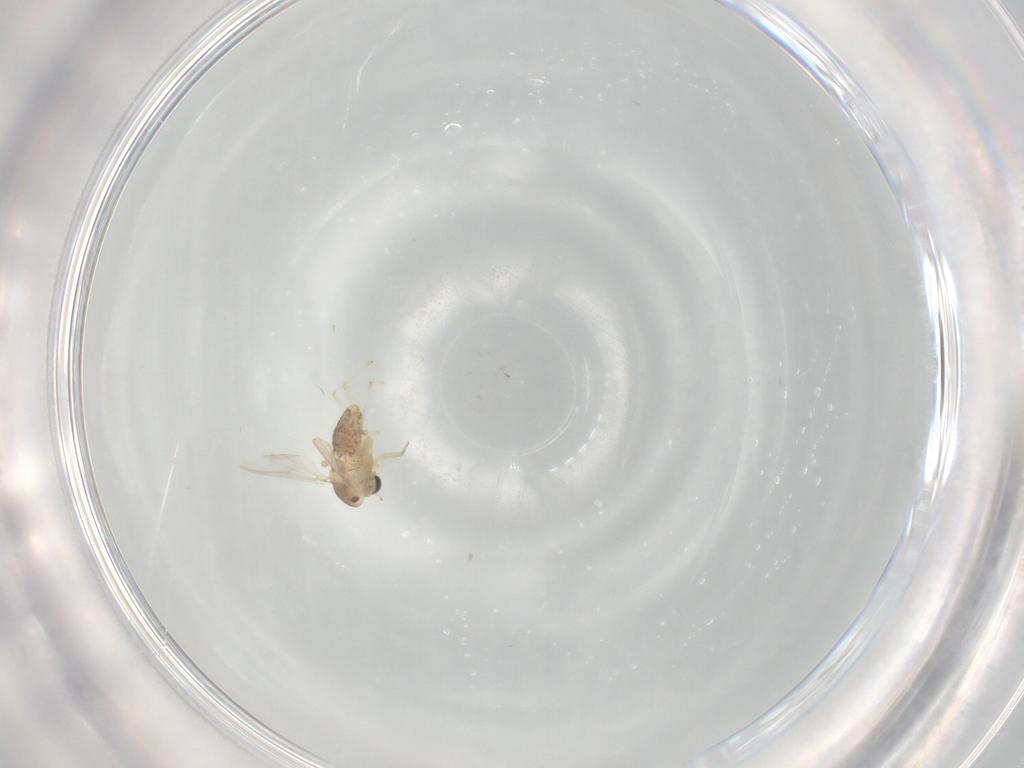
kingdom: Animalia
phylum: Arthropoda
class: Insecta
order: Diptera
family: Chironomidae
